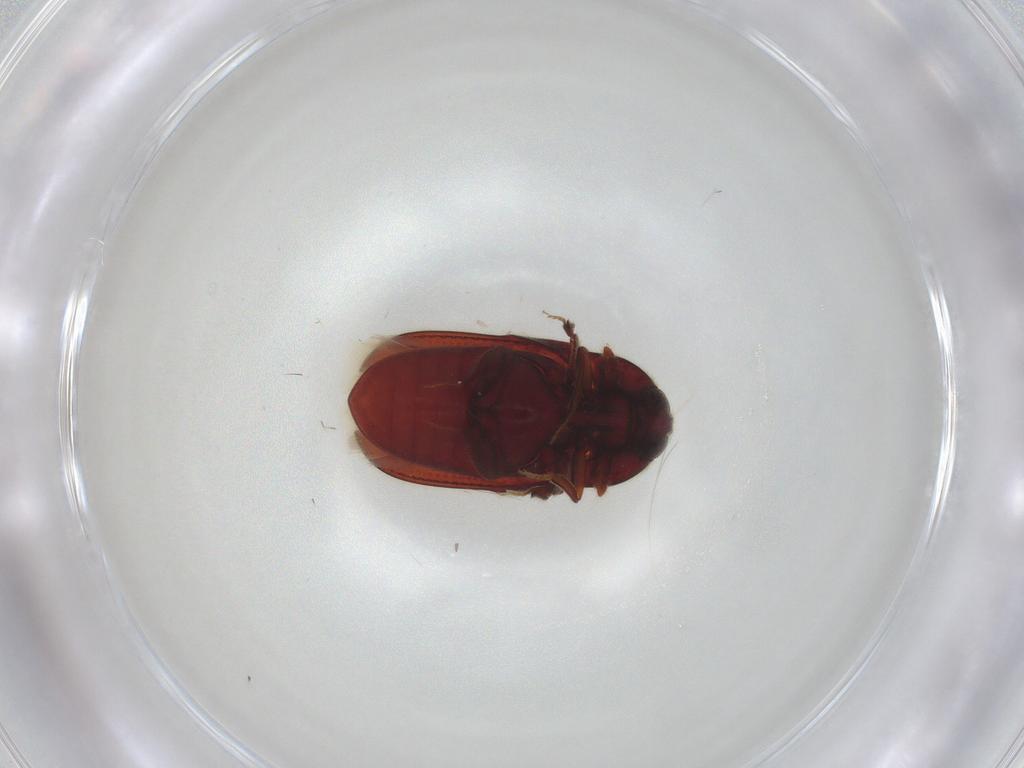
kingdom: Animalia
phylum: Arthropoda
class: Insecta
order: Coleoptera
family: Throscidae
